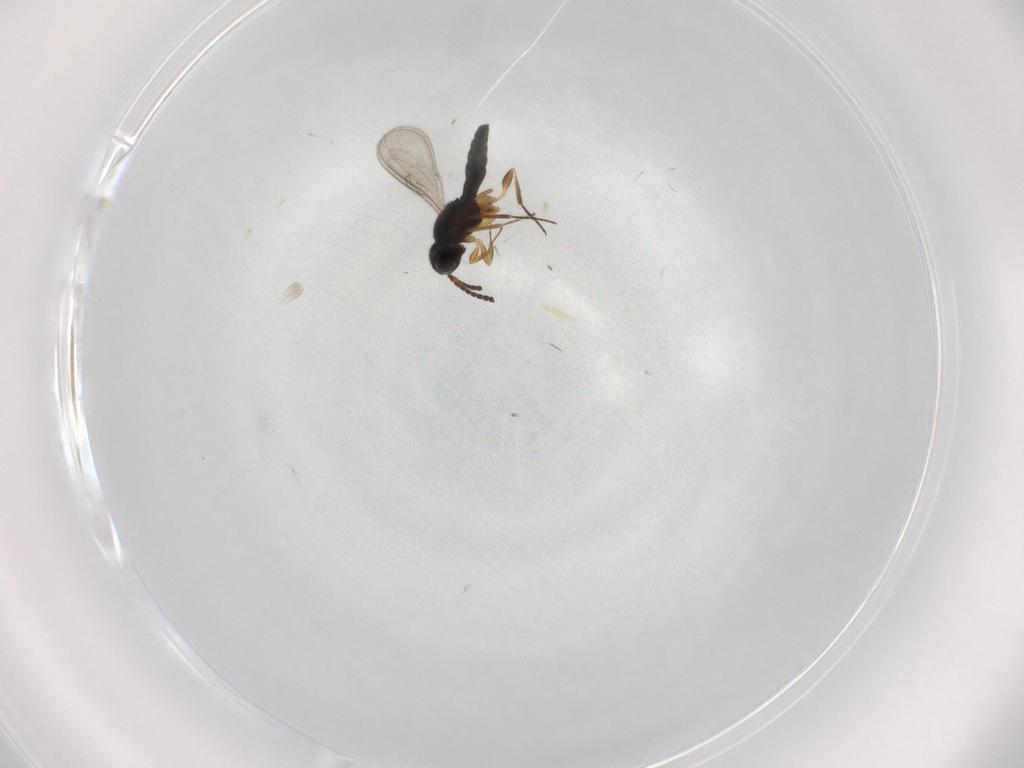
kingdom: Animalia
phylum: Arthropoda
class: Insecta
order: Hymenoptera
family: Scelionidae
